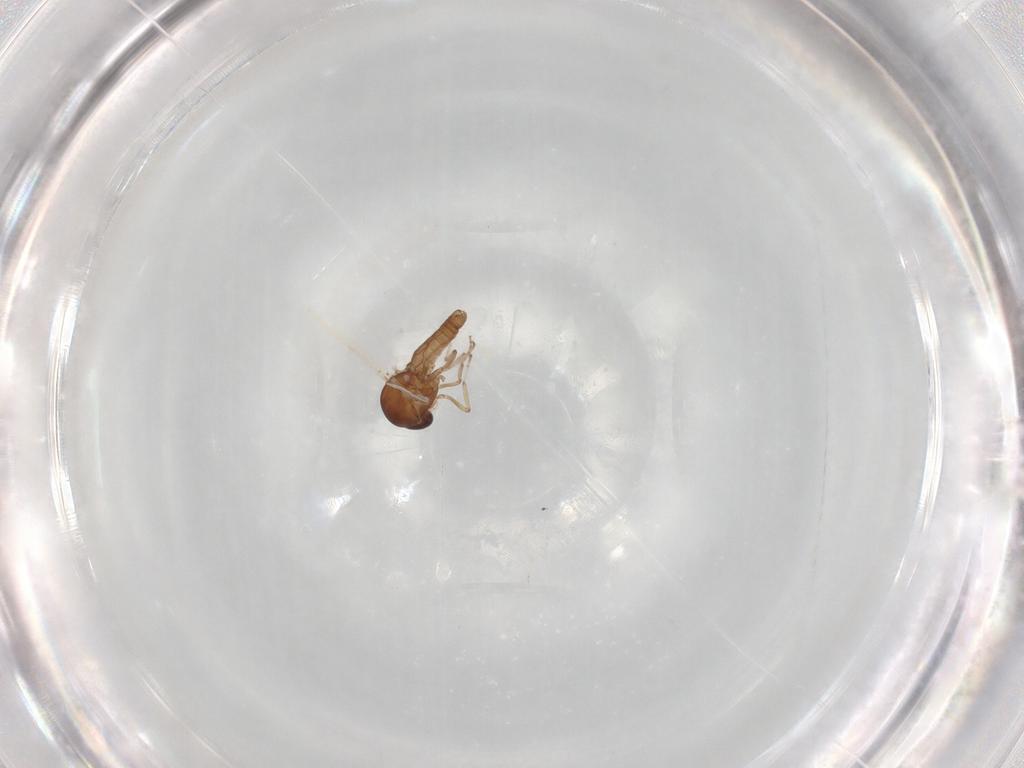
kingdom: Animalia
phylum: Arthropoda
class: Insecta
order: Diptera
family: Ceratopogonidae
